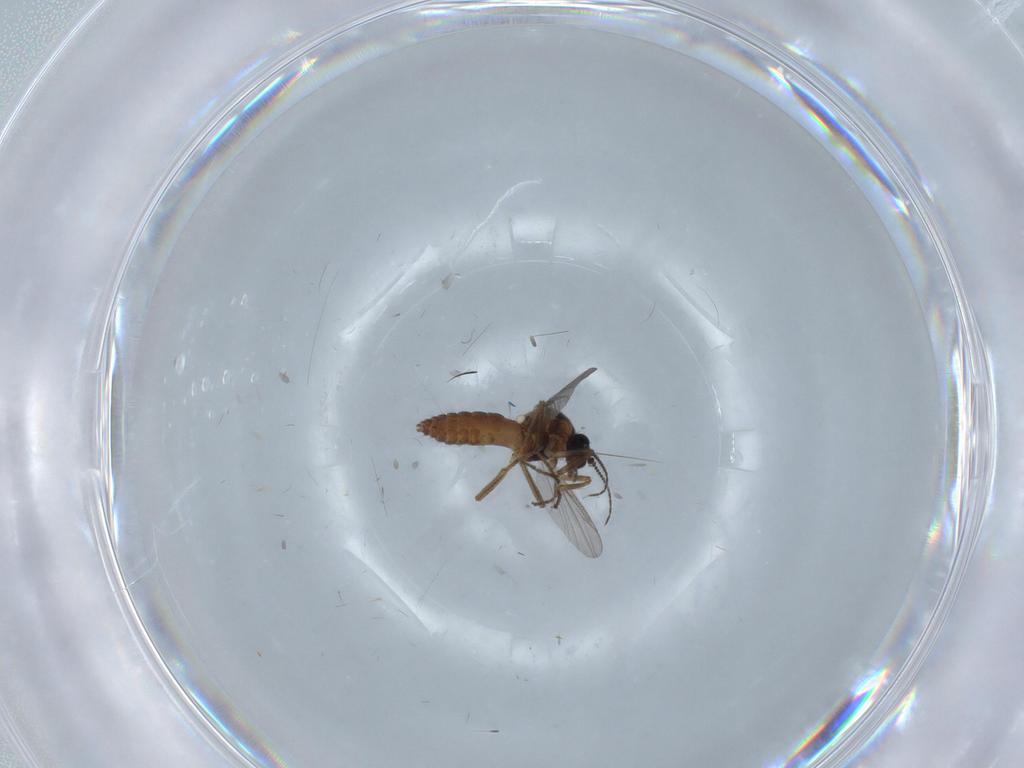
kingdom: Animalia
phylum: Arthropoda
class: Insecta
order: Diptera
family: Ceratopogonidae
